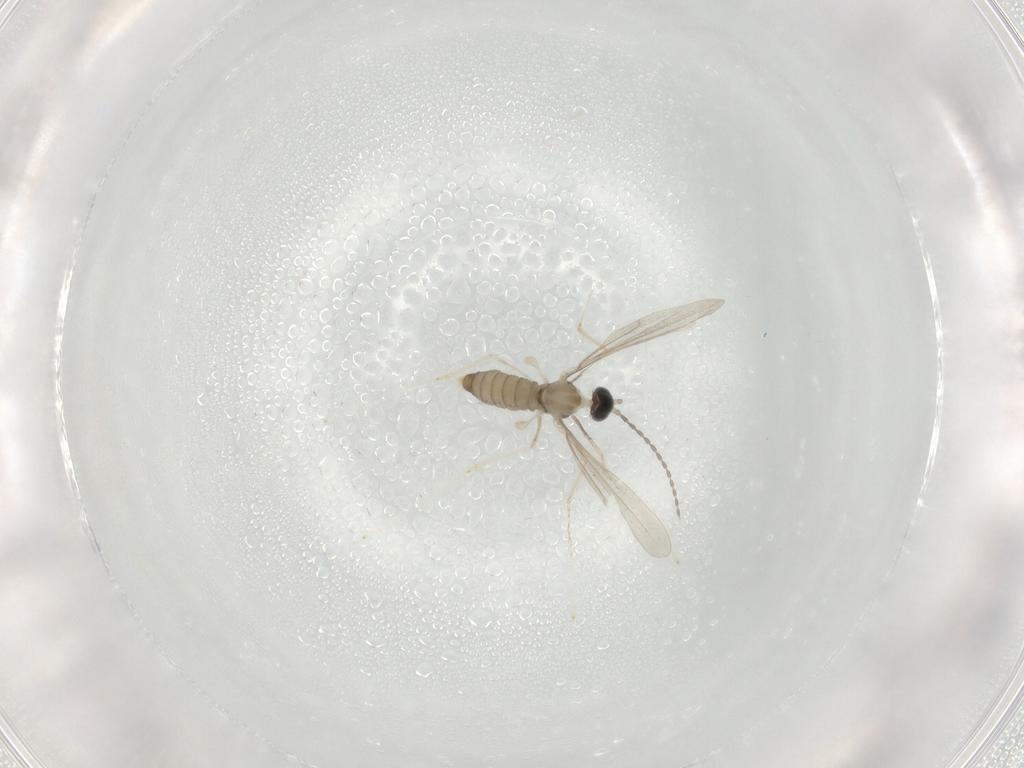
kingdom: Animalia
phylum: Arthropoda
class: Insecta
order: Diptera
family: Cecidomyiidae
